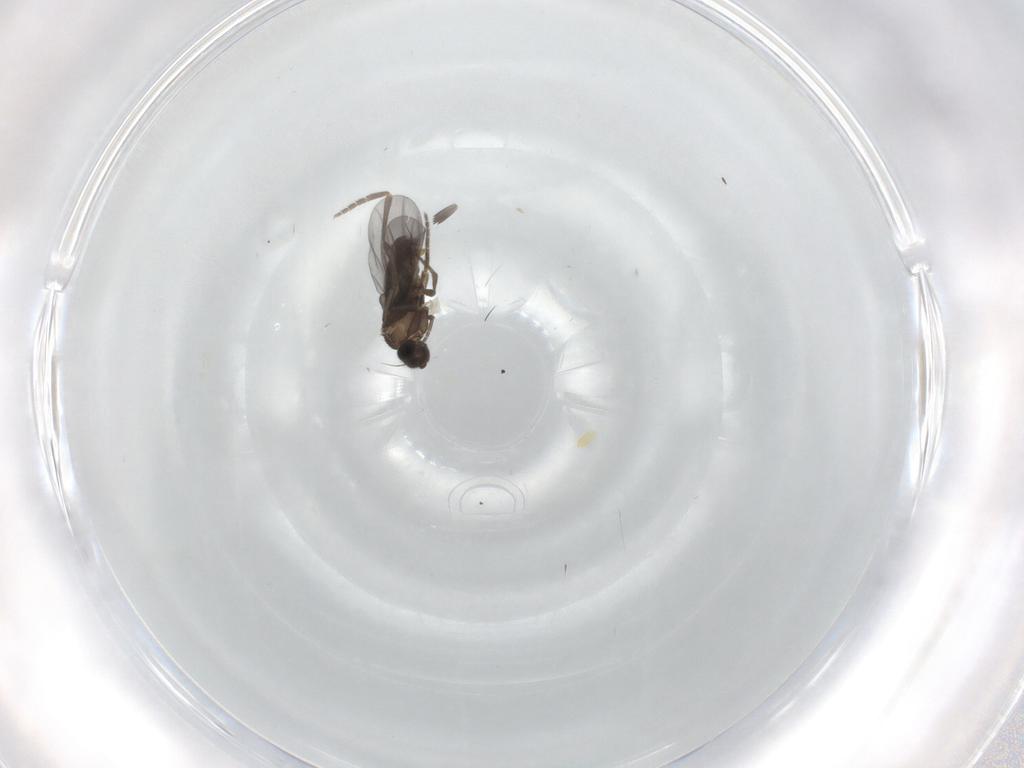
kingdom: Animalia
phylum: Arthropoda
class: Insecta
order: Diptera
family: Phoridae
